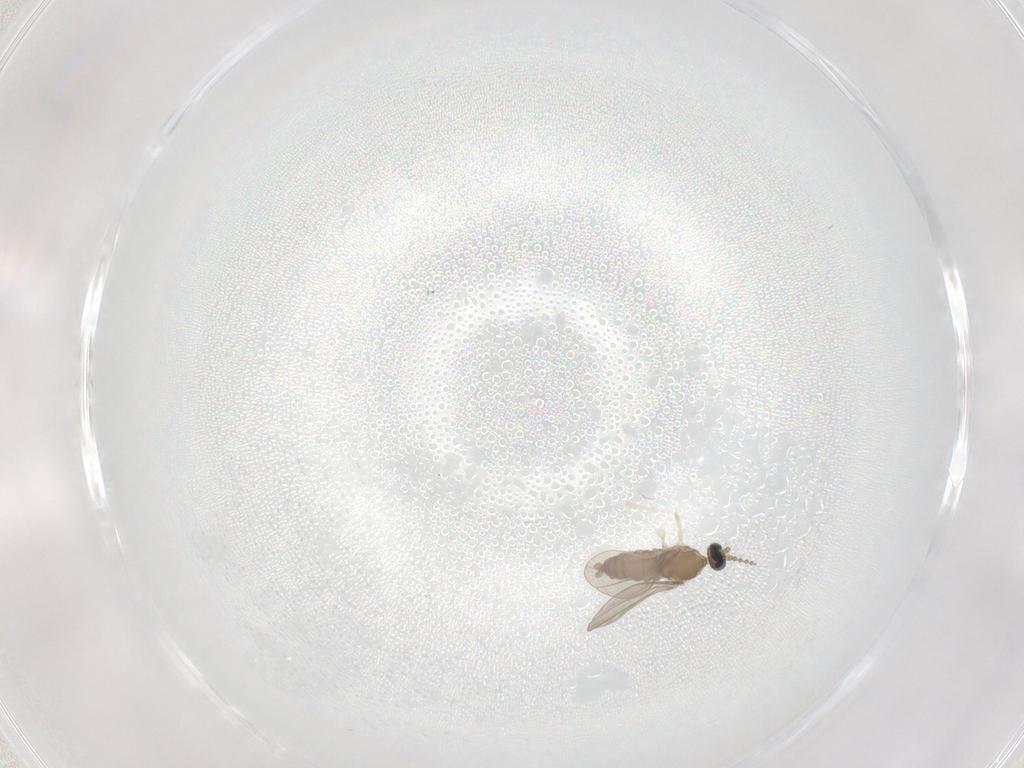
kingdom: Animalia
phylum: Arthropoda
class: Insecta
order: Diptera
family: Cecidomyiidae
